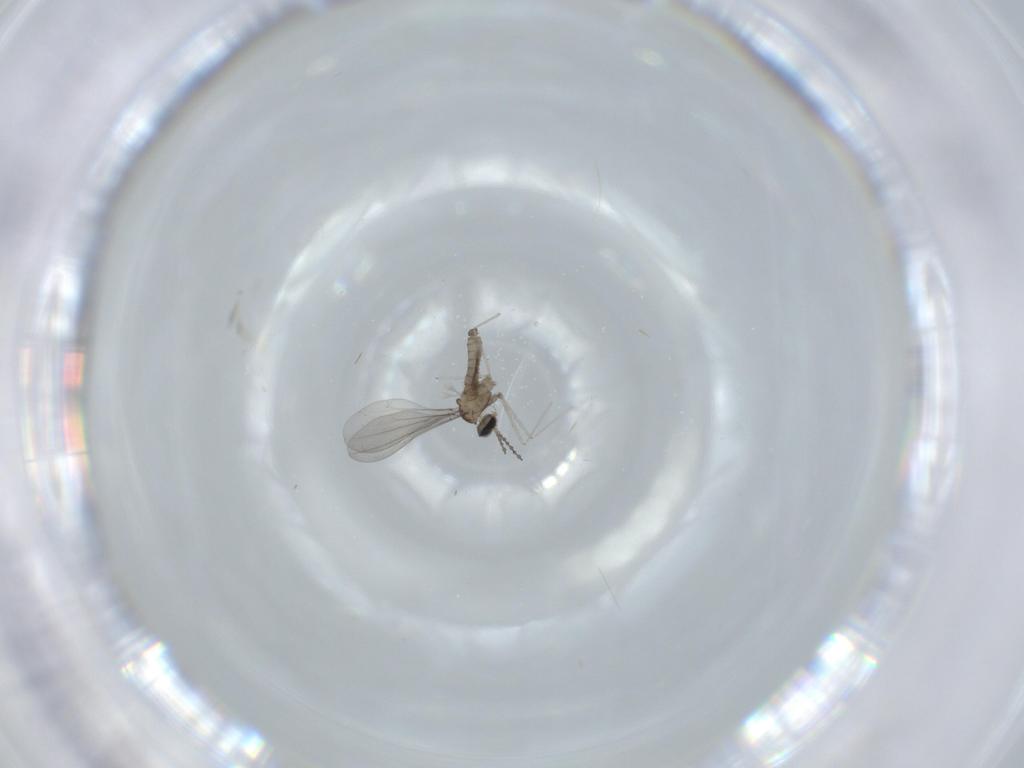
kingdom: Animalia
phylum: Arthropoda
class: Insecta
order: Diptera
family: Cecidomyiidae
